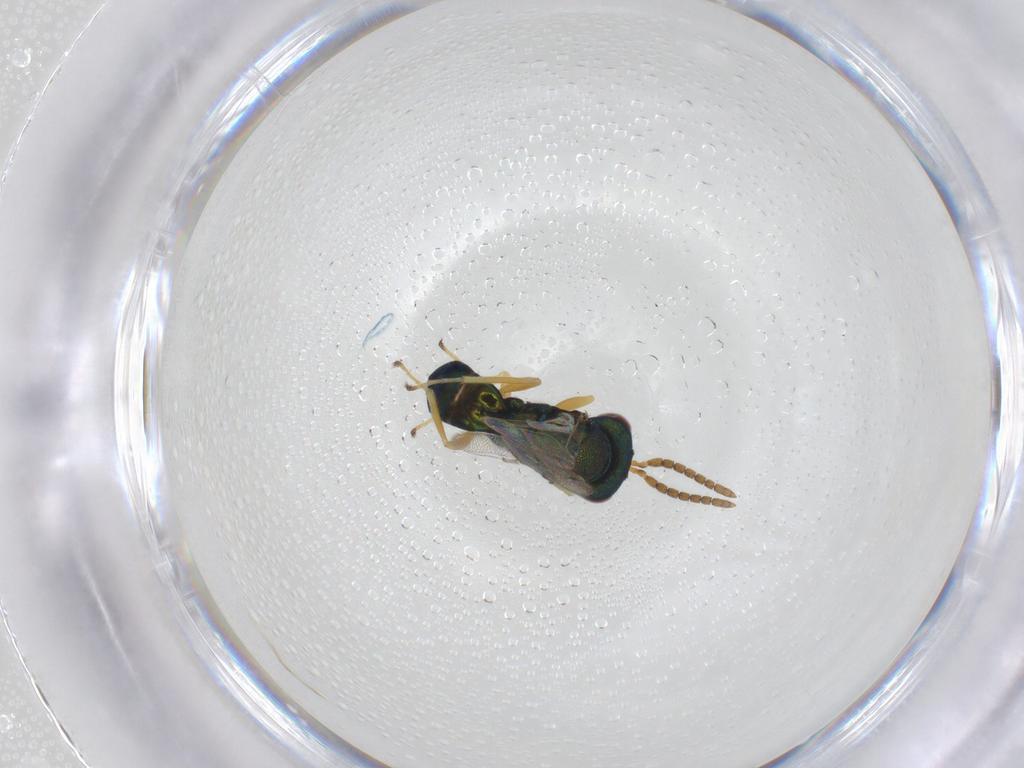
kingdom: Animalia
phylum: Arthropoda
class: Insecta
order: Hymenoptera
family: Pteromalidae
